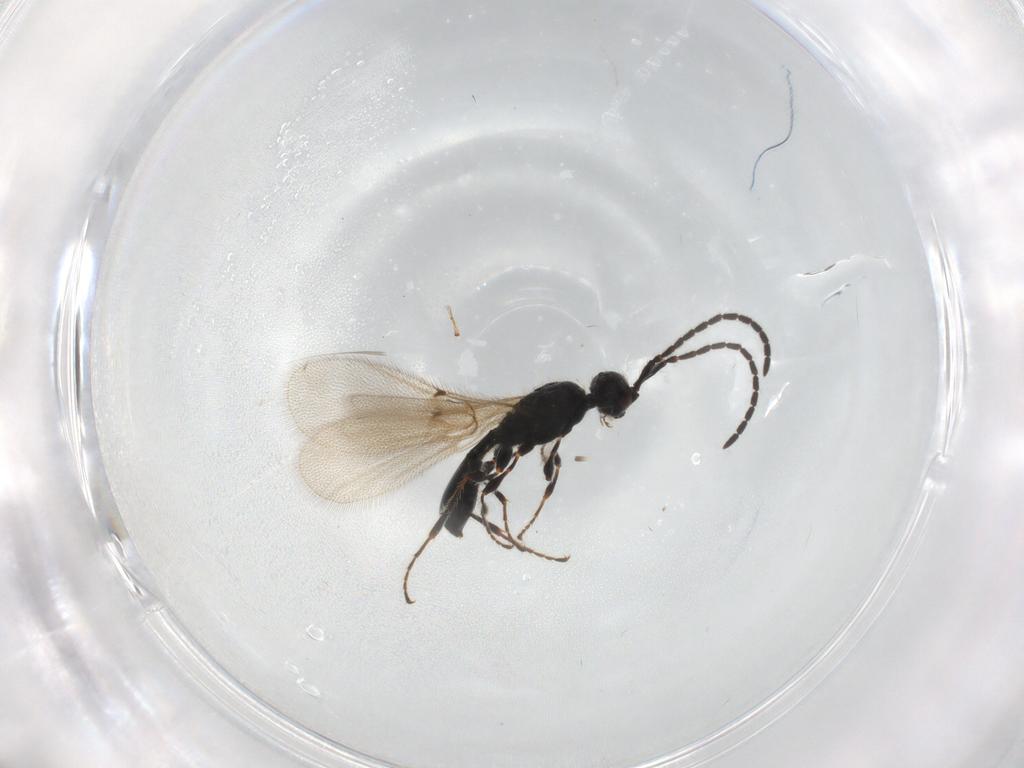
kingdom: Animalia
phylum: Arthropoda
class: Insecta
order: Hymenoptera
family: Diapriidae
